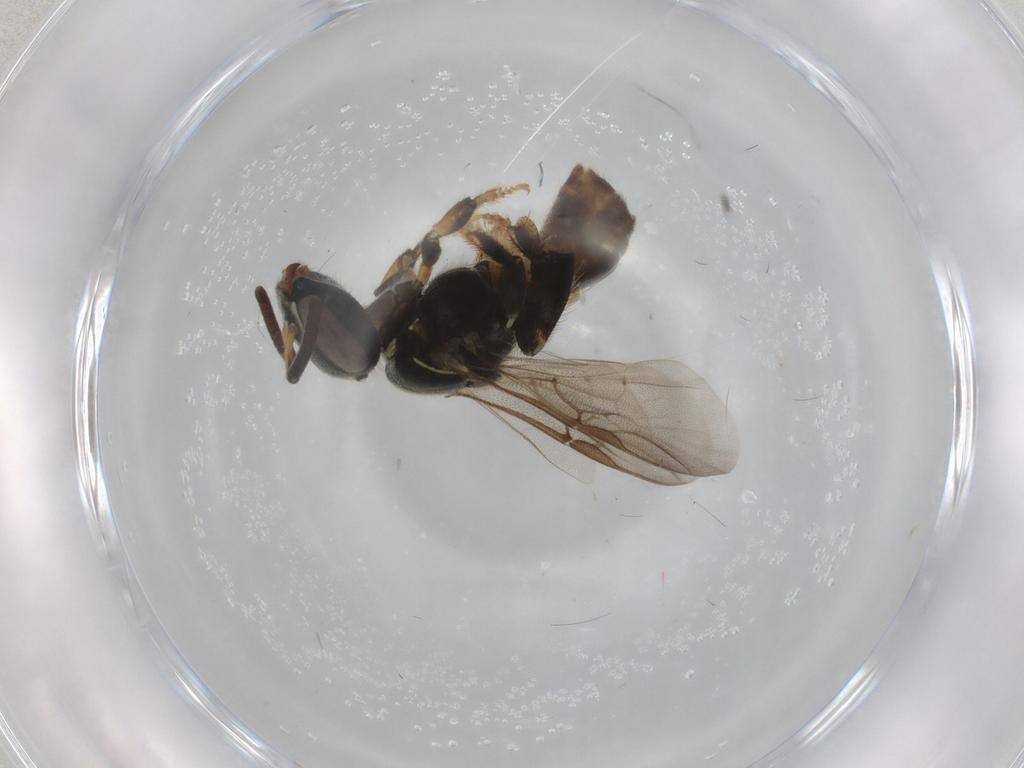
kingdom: Animalia
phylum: Arthropoda
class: Insecta
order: Hymenoptera
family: Apidae
